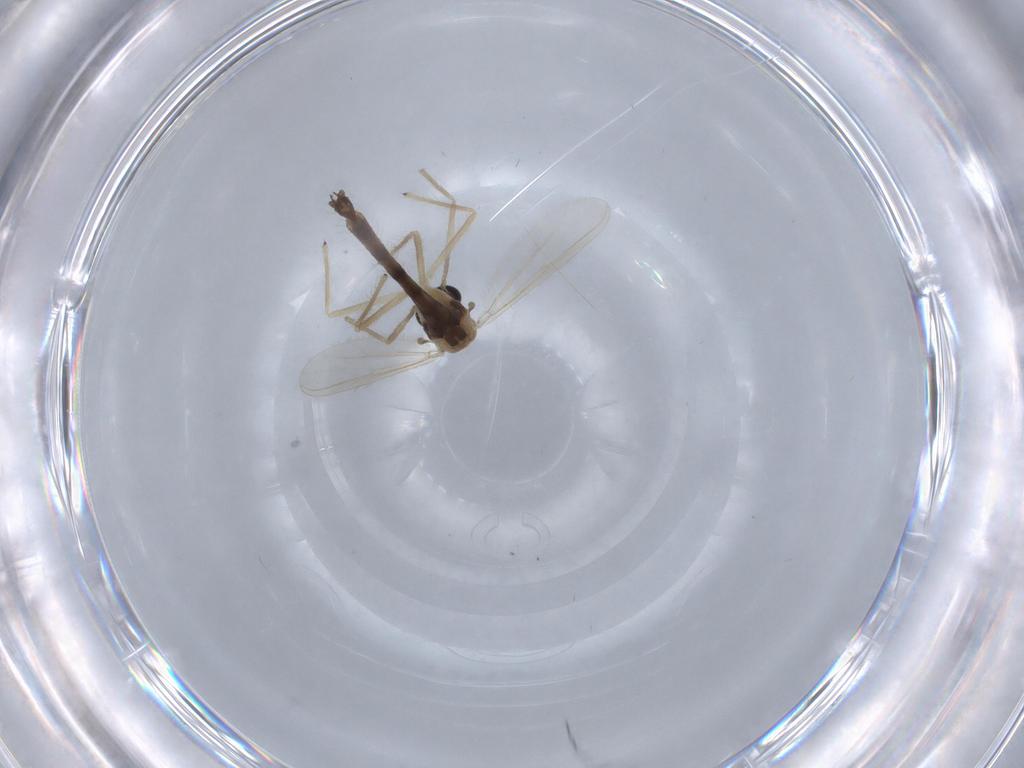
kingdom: Animalia
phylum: Arthropoda
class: Insecta
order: Diptera
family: Chironomidae
